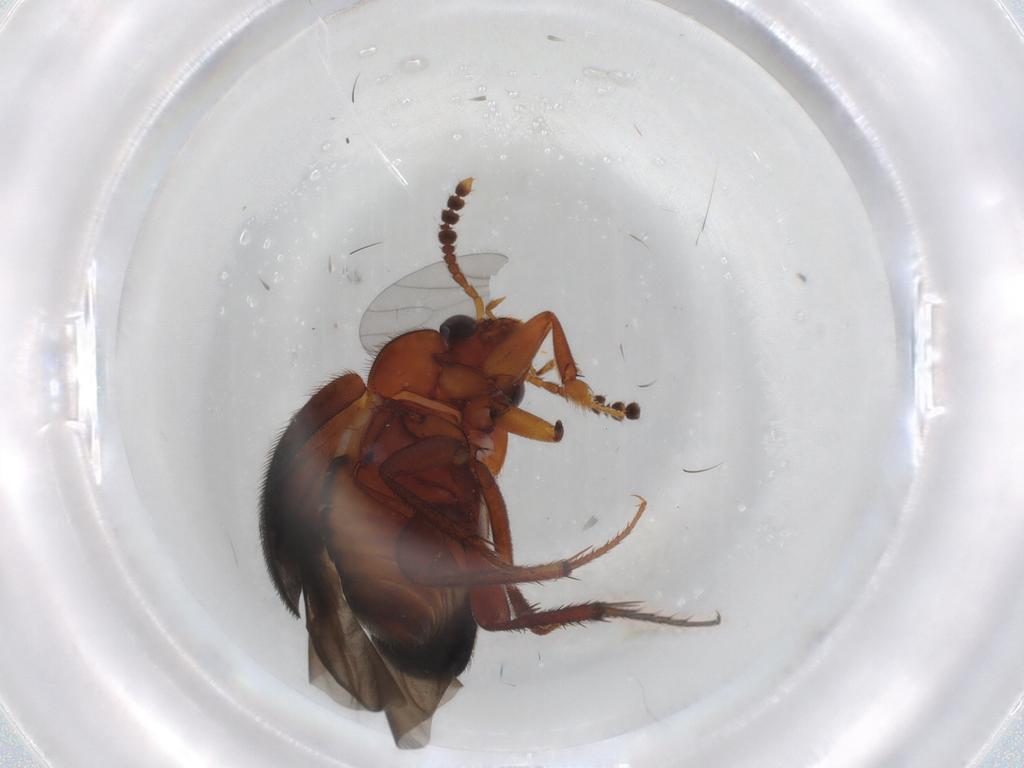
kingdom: Animalia
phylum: Arthropoda
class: Insecta
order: Coleoptera
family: Leiodidae
